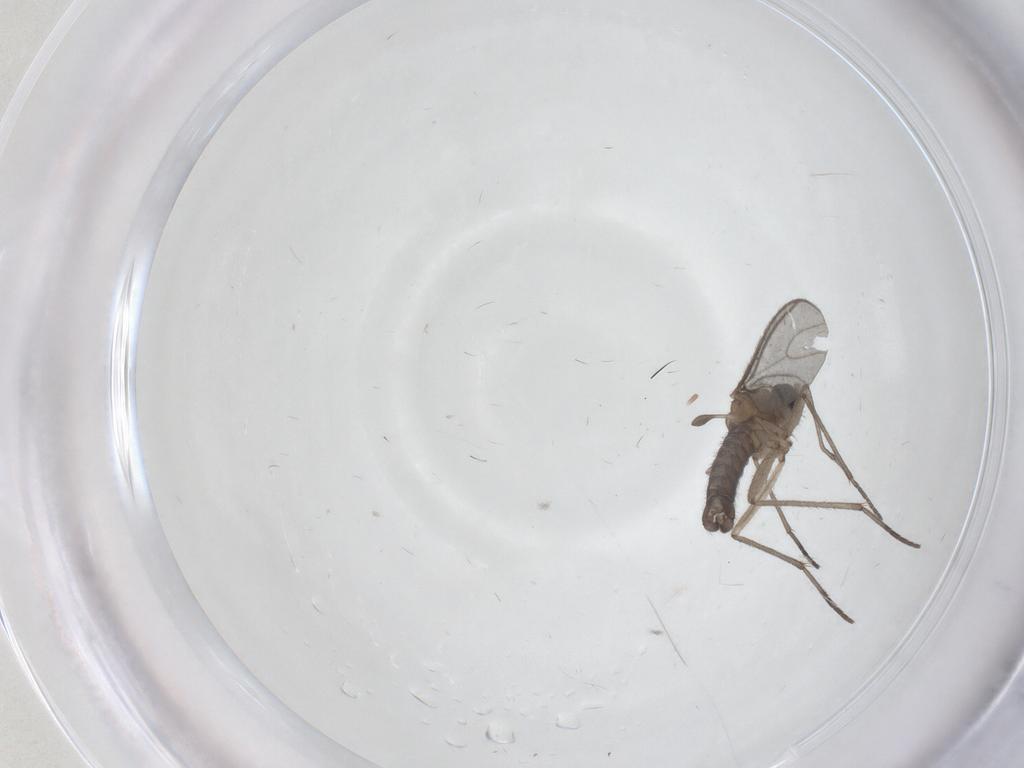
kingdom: Animalia
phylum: Arthropoda
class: Insecta
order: Diptera
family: Sciaridae
